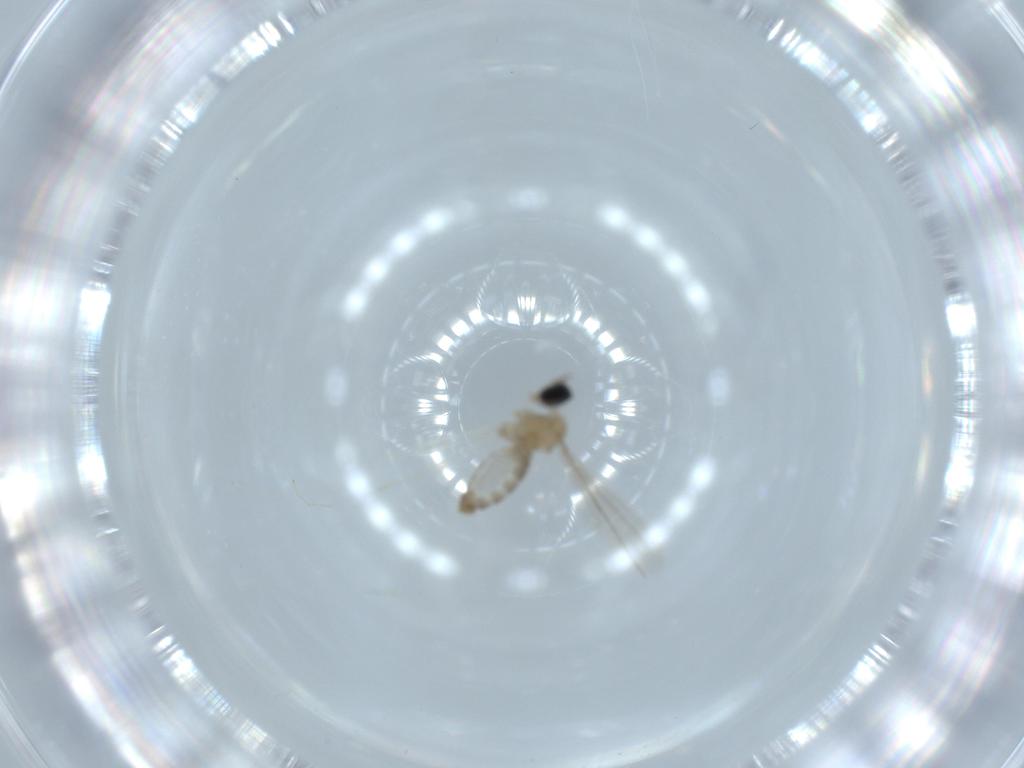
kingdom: Animalia
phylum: Arthropoda
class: Insecta
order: Diptera
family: Cecidomyiidae
